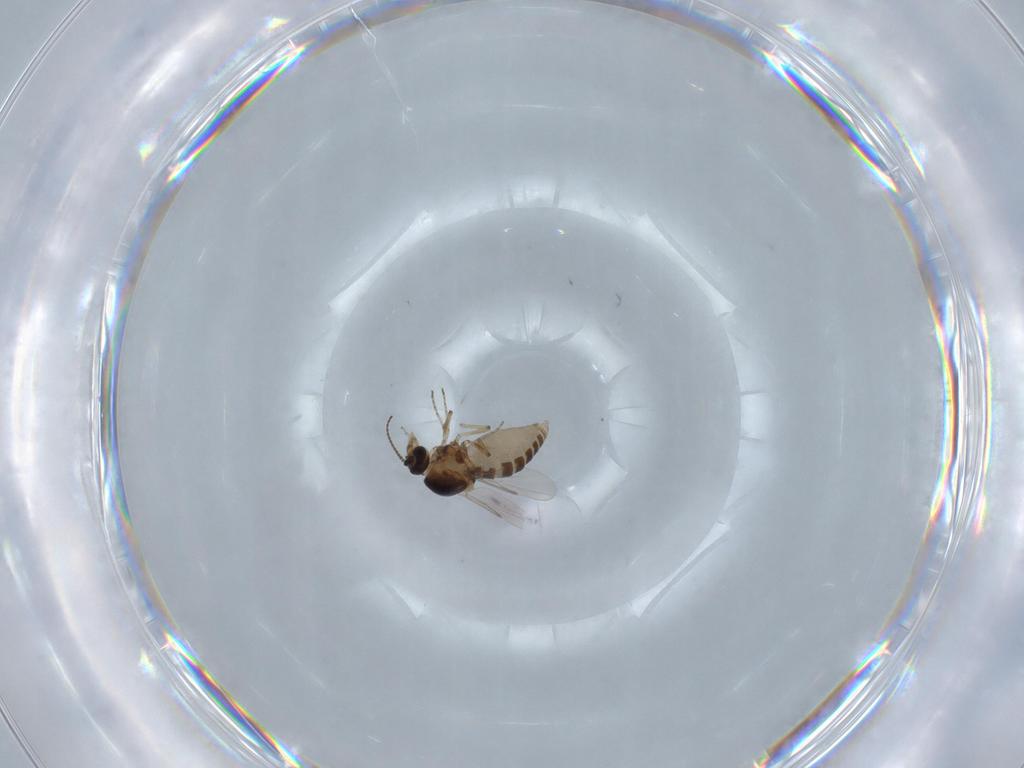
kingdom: Animalia
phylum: Arthropoda
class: Insecta
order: Diptera
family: Ceratopogonidae
